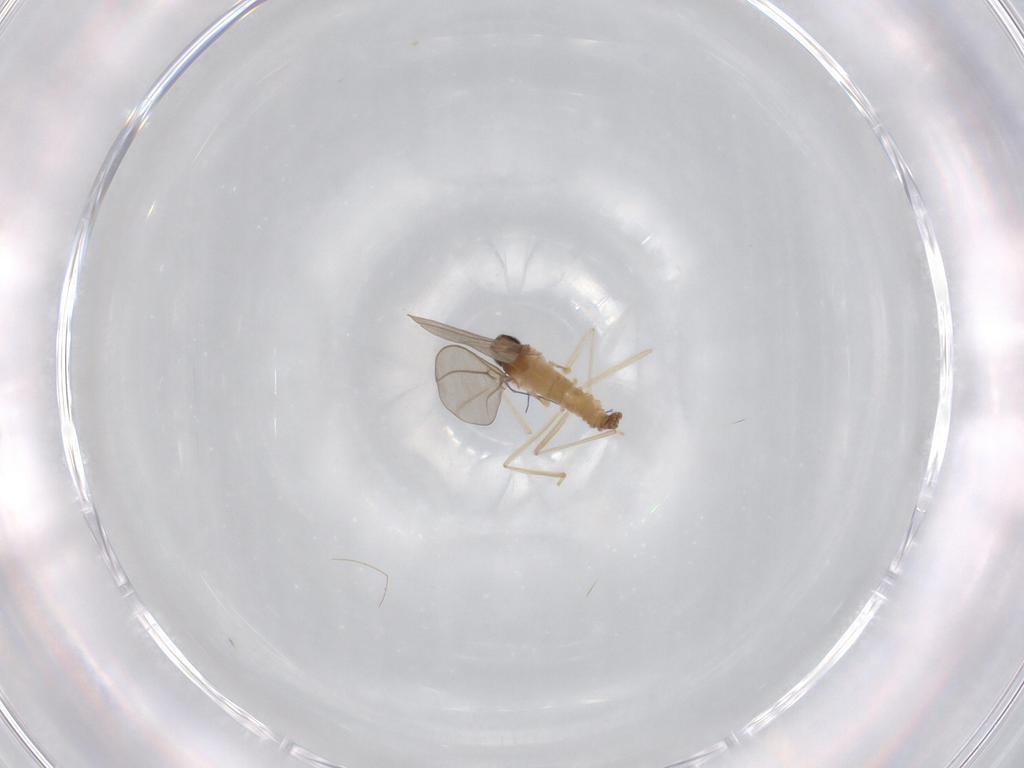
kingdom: Animalia
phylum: Arthropoda
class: Insecta
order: Diptera
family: Cecidomyiidae
